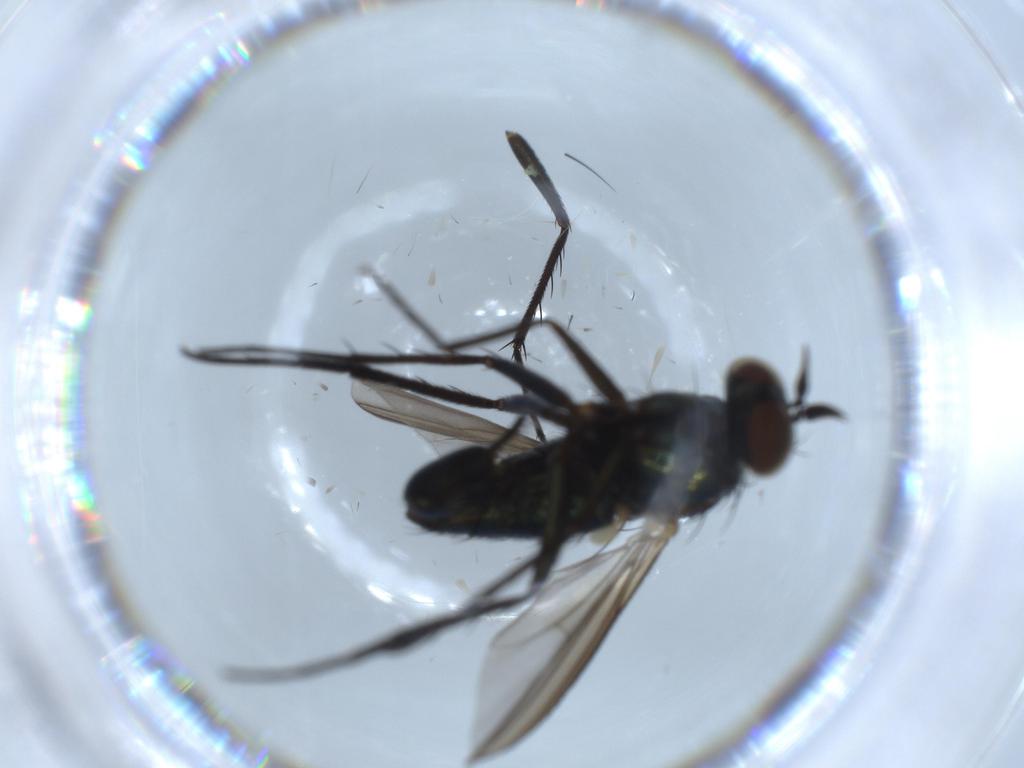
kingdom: Animalia
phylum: Arthropoda
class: Insecta
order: Diptera
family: Dolichopodidae
